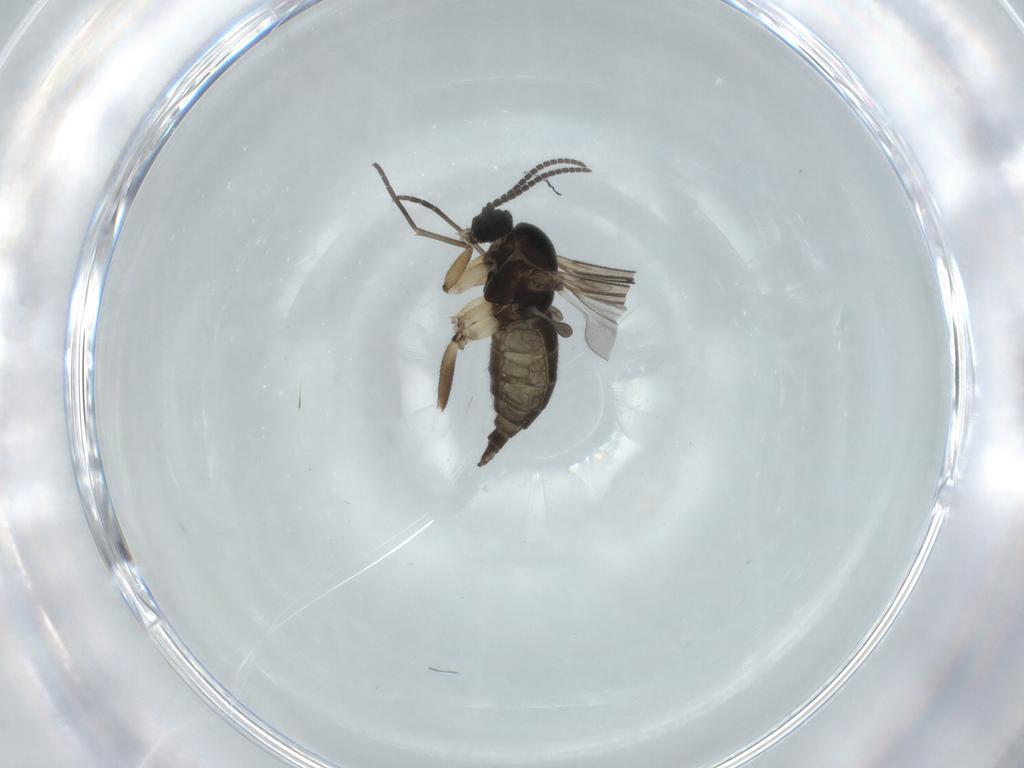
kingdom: Animalia
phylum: Arthropoda
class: Insecta
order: Diptera
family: Sciaridae
